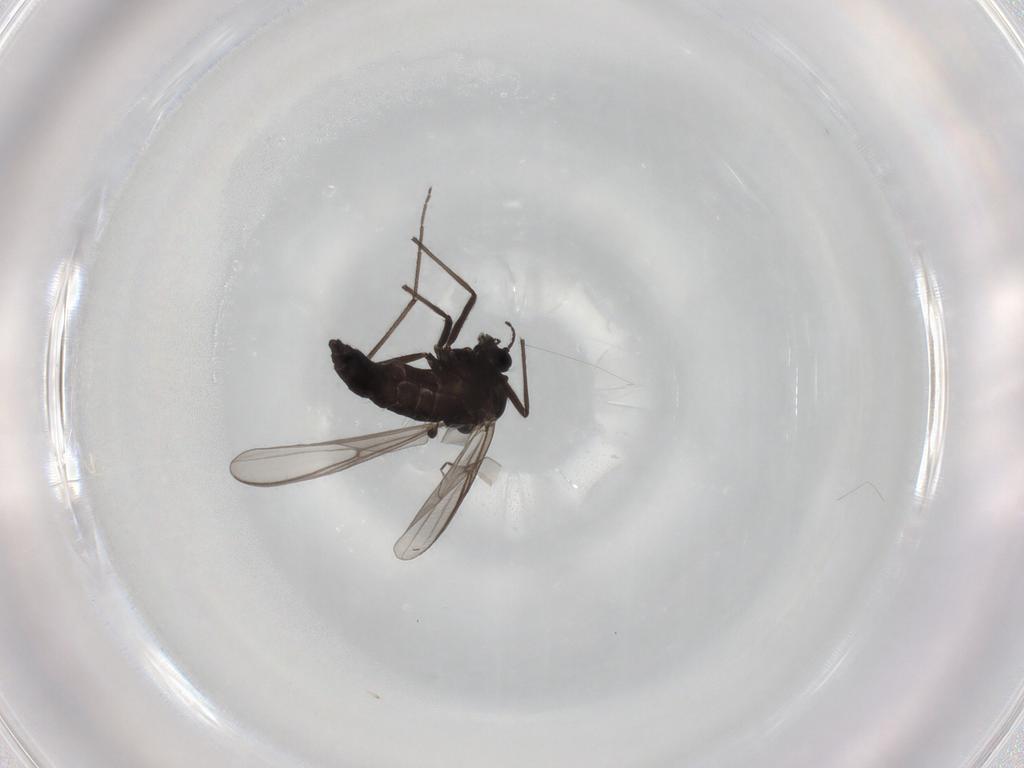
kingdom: Animalia
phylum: Arthropoda
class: Insecta
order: Diptera
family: Chironomidae
